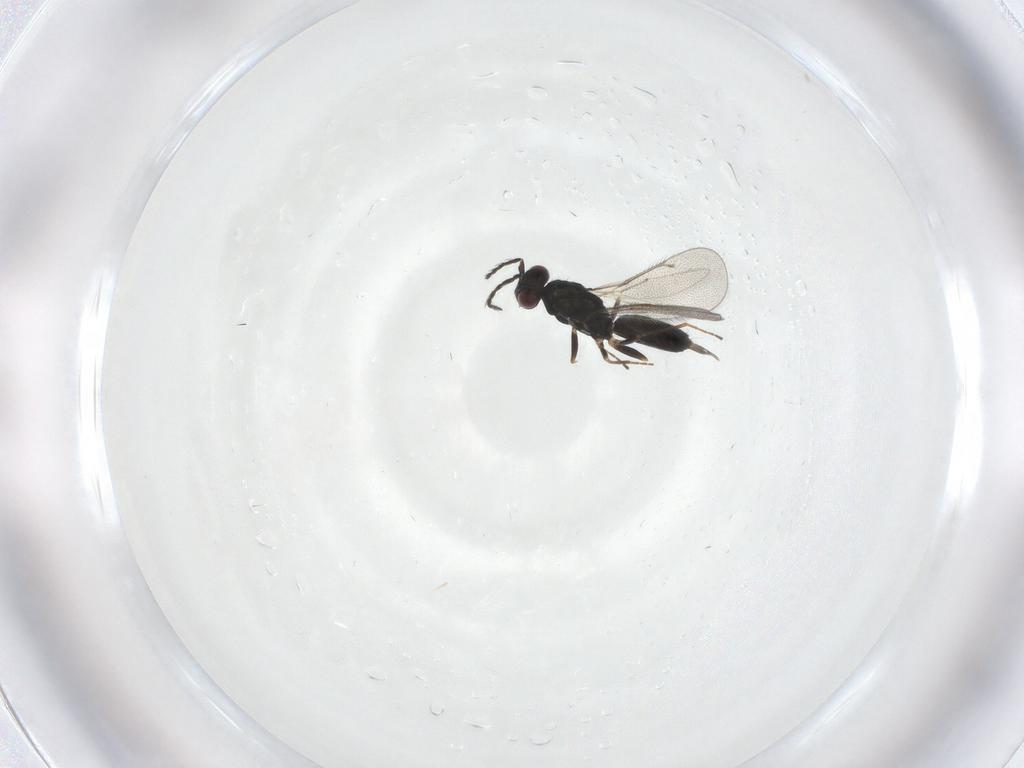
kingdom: Animalia
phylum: Arthropoda
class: Insecta
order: Hymenoptera
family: Eulophidae
